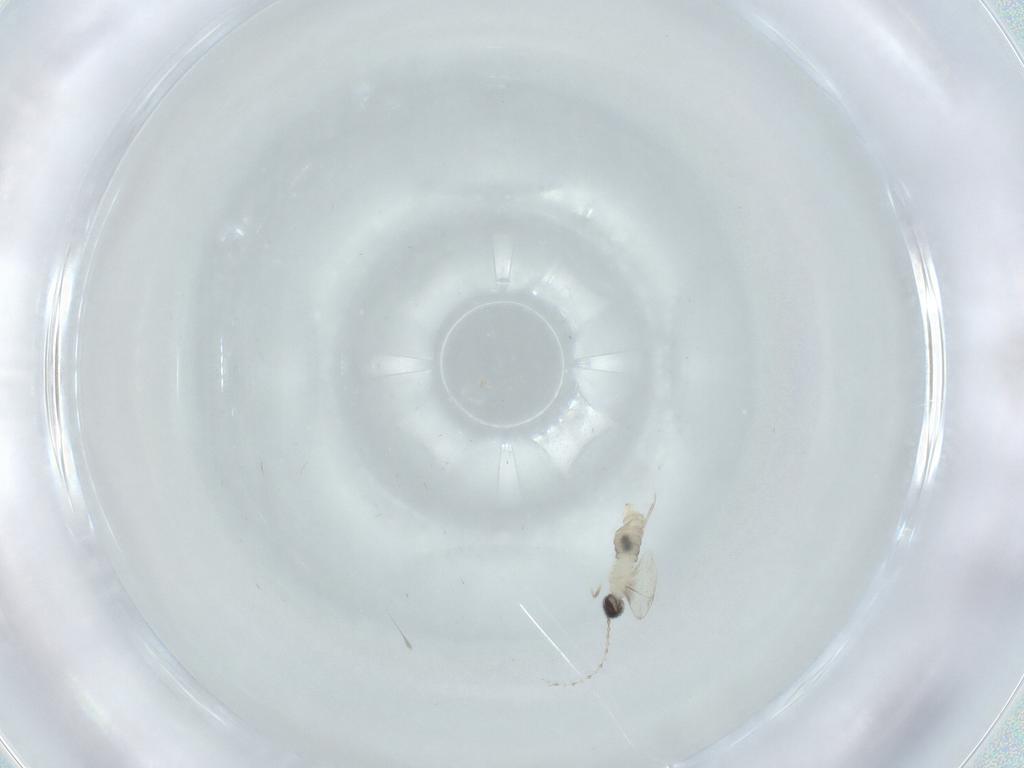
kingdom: Animalia
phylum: Arthropoda
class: Insecta
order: Diptera
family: Cecidomyiidae
